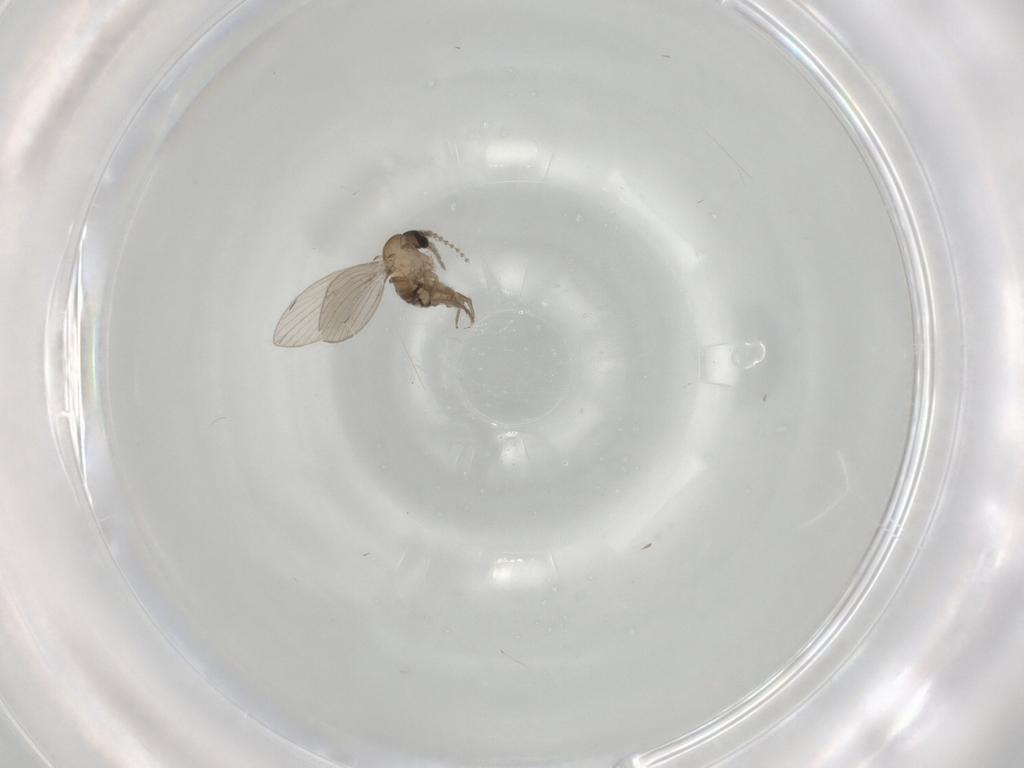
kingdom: Animalia
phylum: Arthropoda
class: Insecta
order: Diptera
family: Psychodidae
